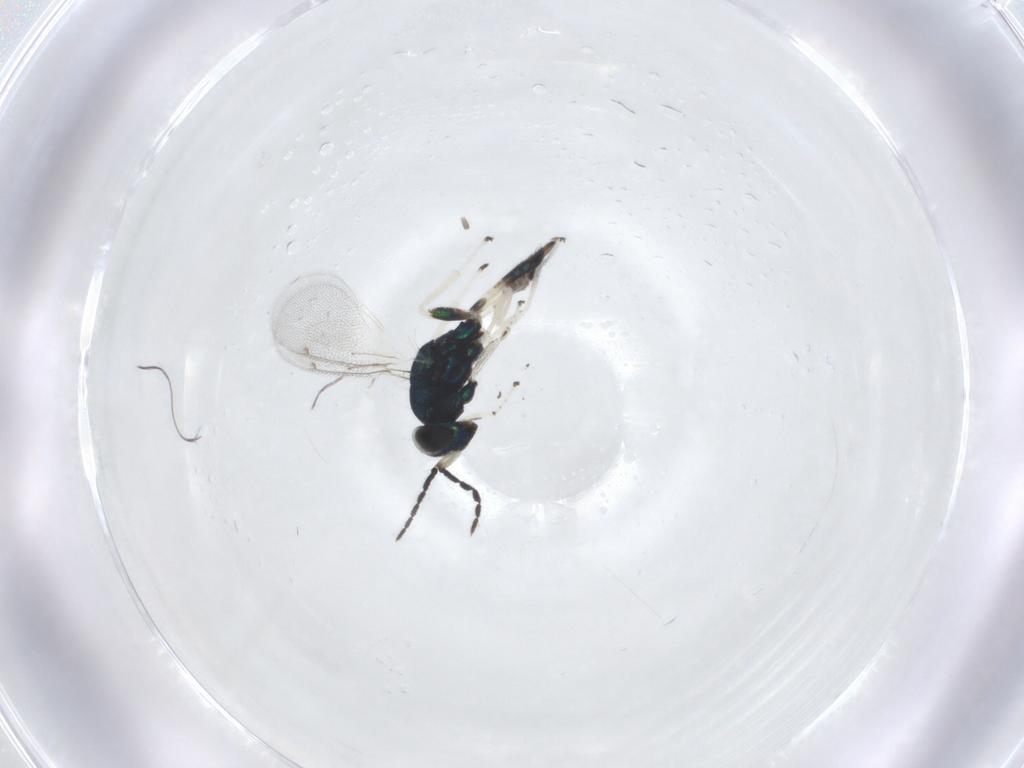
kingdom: Animalia
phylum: Arthropoda
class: Insecta
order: Hymenoptera
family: Eulophidae
